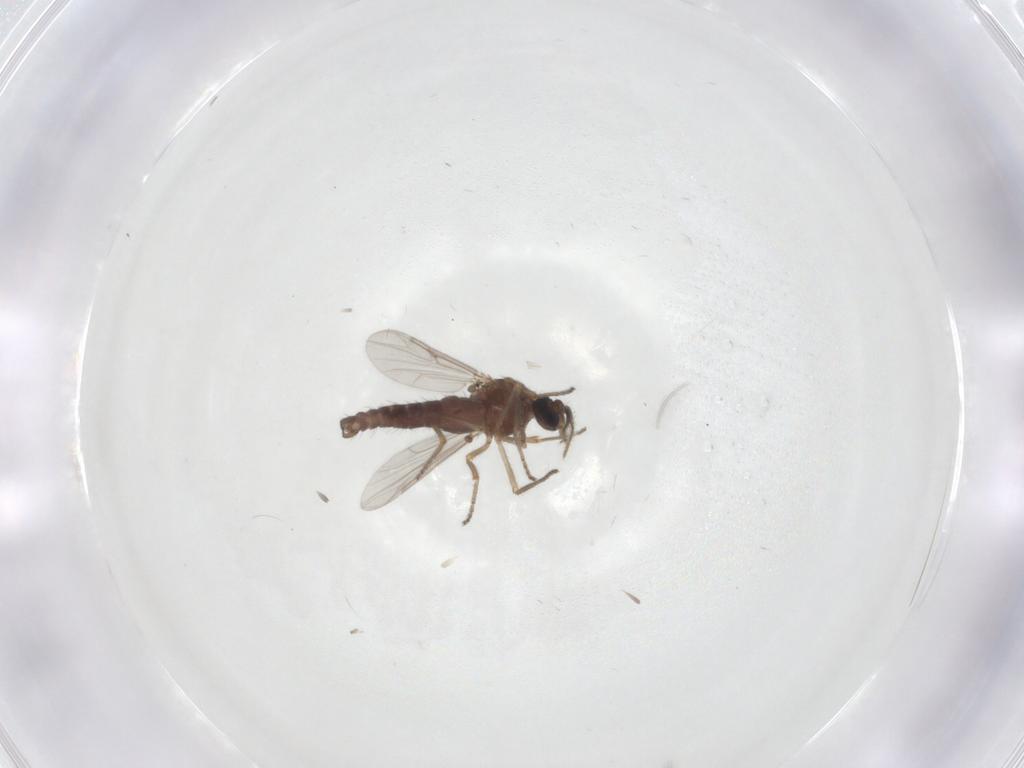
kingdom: Animalia
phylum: Arthropoda
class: Insecta
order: Diptera
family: Ceratopogonidae
